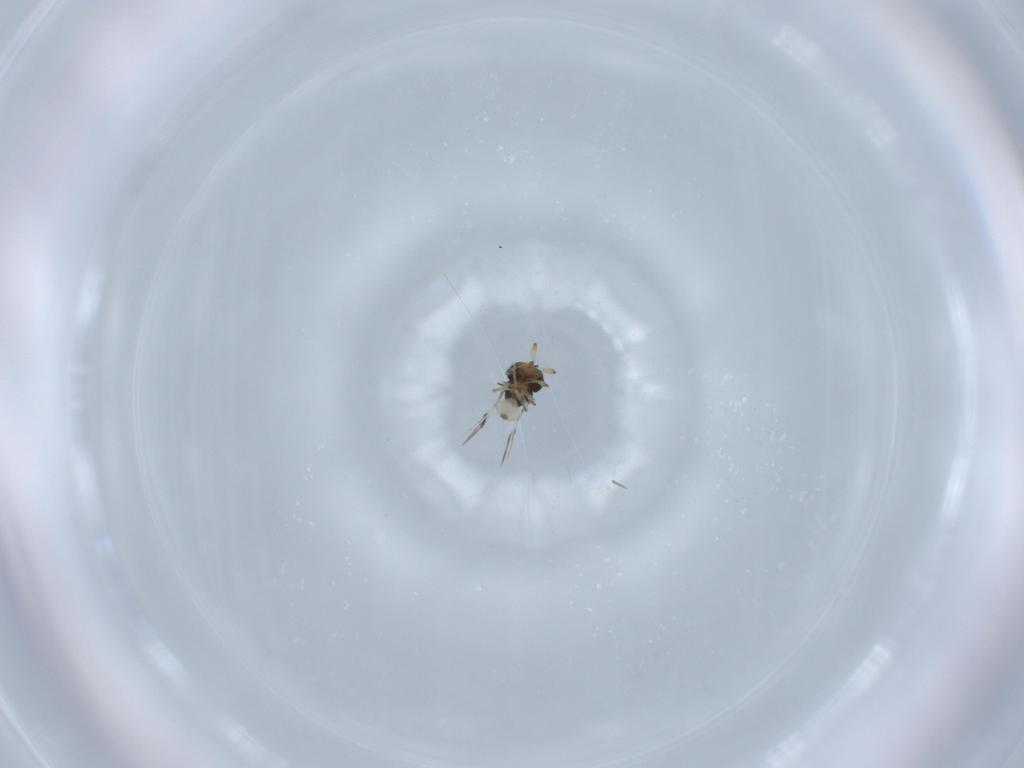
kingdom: Animalia
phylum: Arthropoda
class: Insecta
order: Hymenoptera
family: Scelionidae
